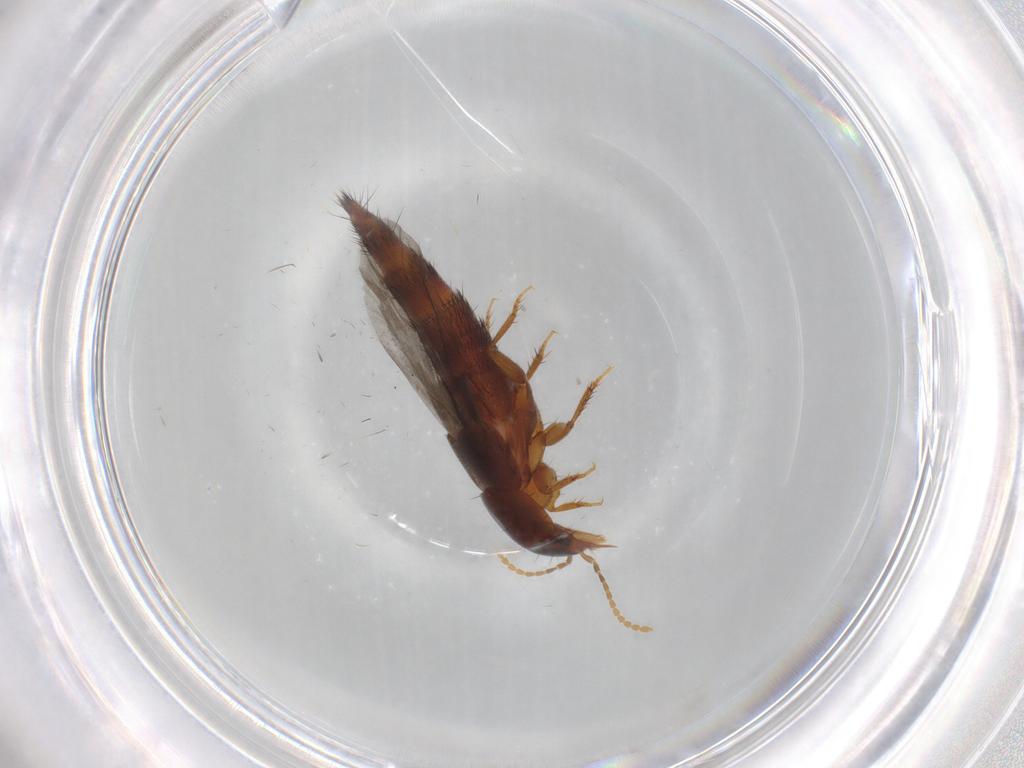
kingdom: Animalia
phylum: Arthropoda
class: Insecta
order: Coleoptera
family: Staphylinidae
